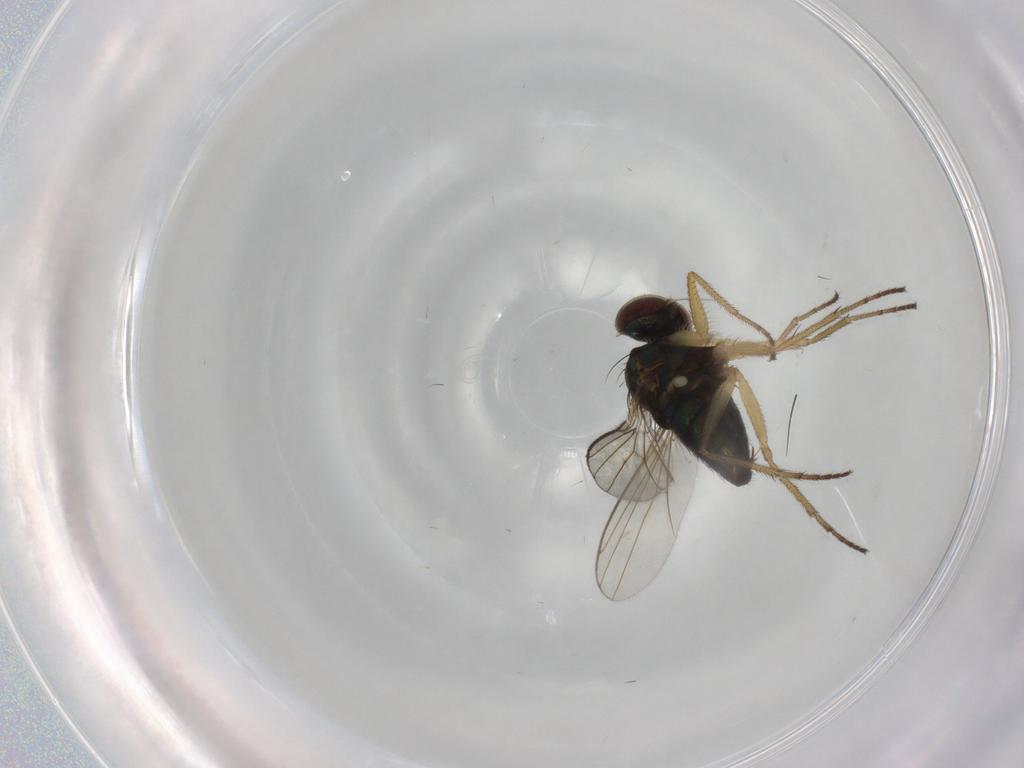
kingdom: Animalia
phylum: Arthropoda
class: Insecta
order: Diptera
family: Dolichopodidae
